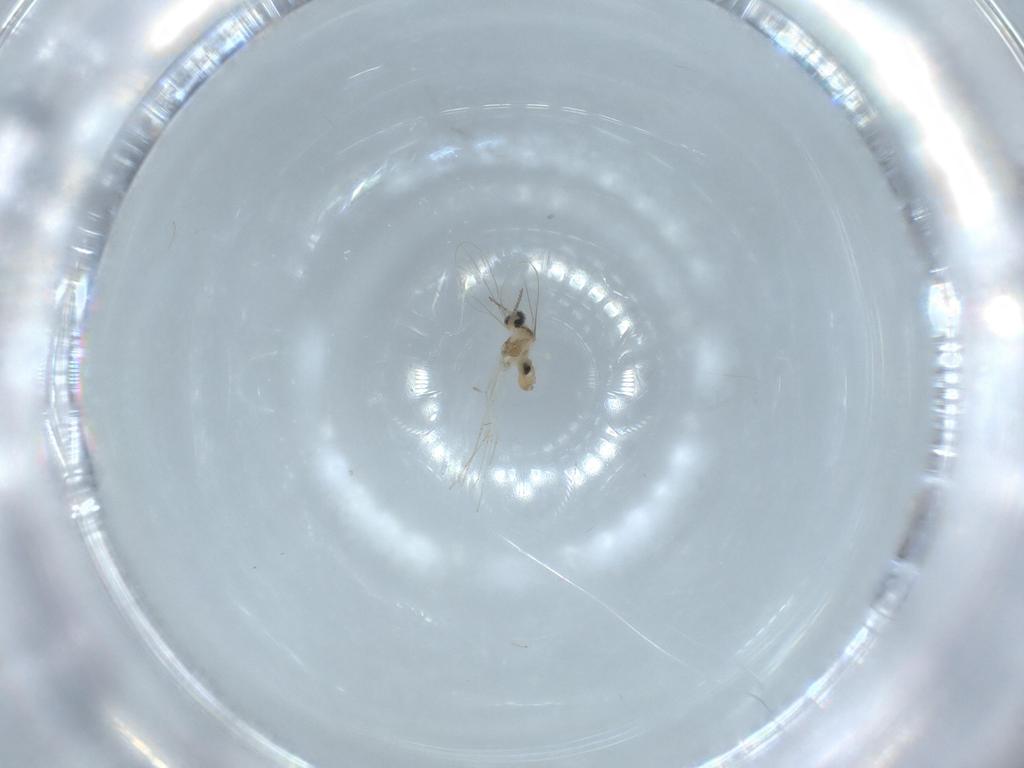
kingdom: Animalia
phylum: Arthropoda
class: Insecta
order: Diptera
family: Cecidomyiidae
